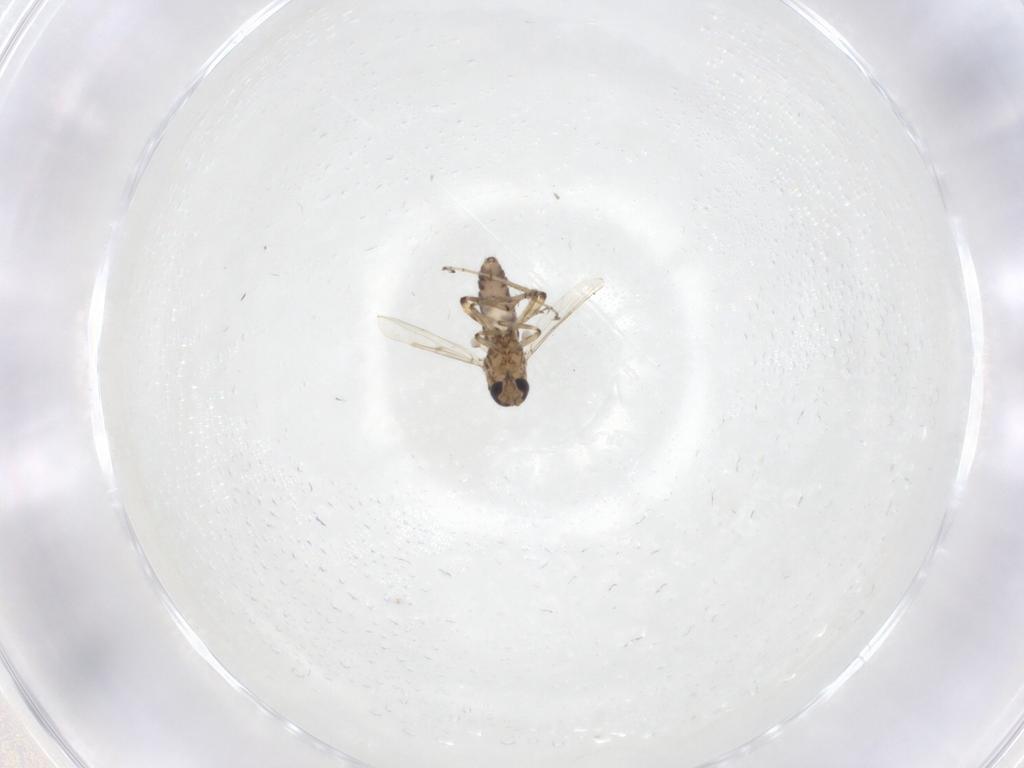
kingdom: Animalia
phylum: Arthropoda
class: Insecta
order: Diptera
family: Ceratopogonidae
